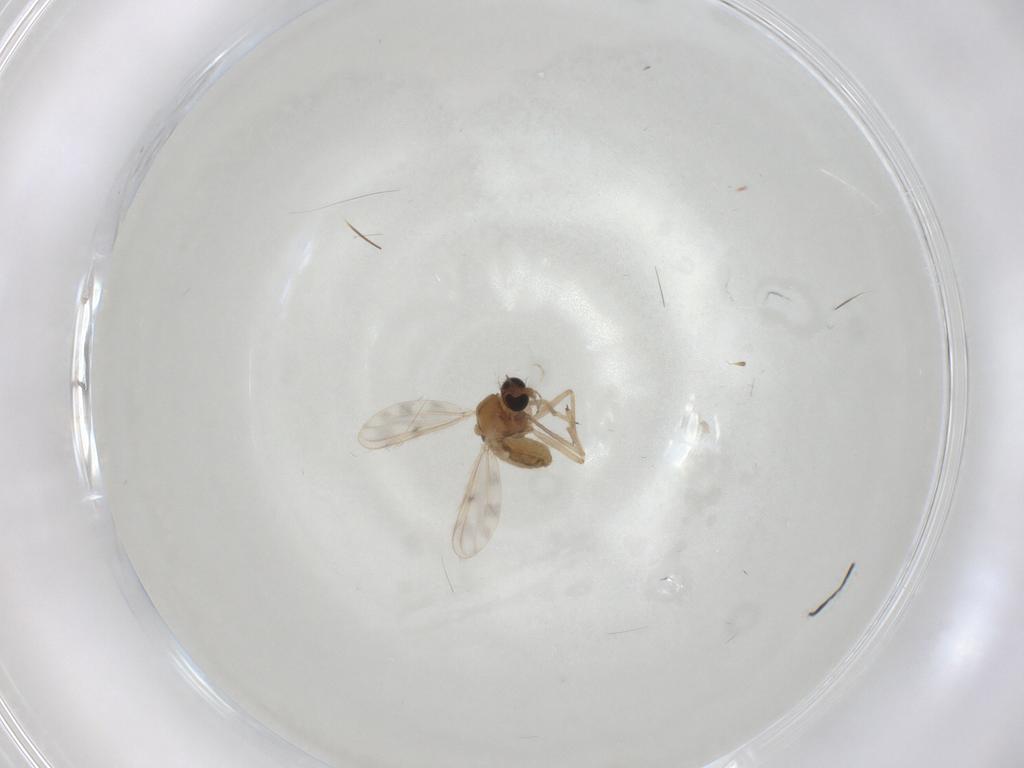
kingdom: Animalia
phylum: Arthropoda
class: Insecta
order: Diptera
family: Chironomidae
